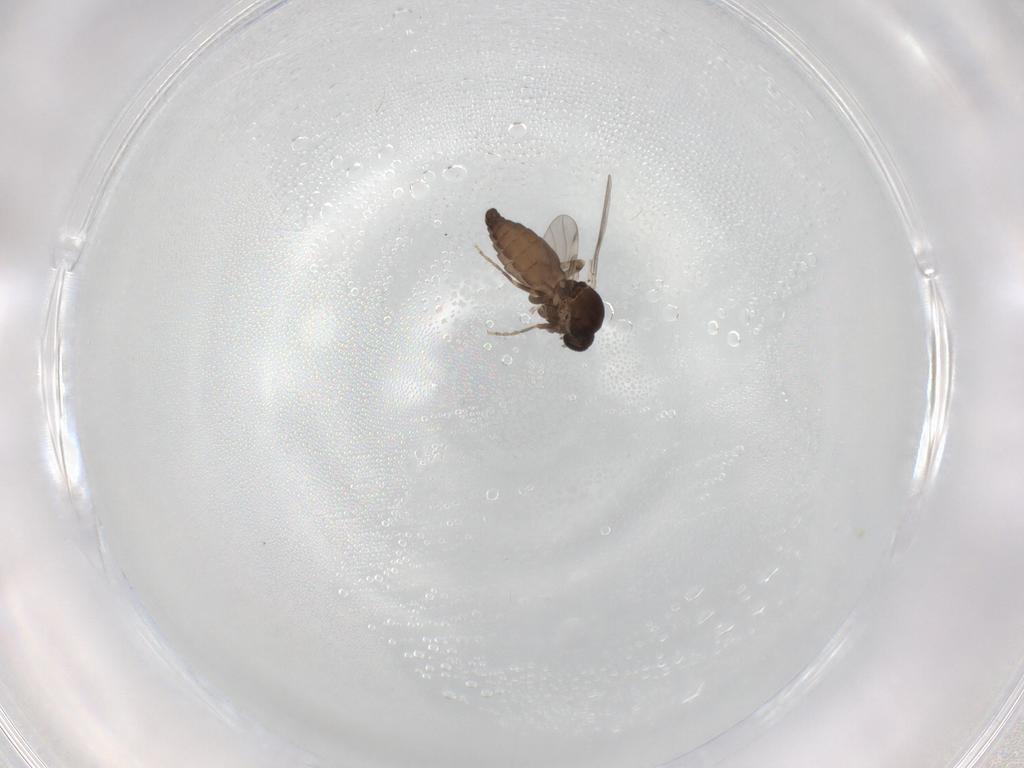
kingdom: Animalia
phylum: Arthropoda
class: Insecta
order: Diptera
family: Ceratopogonidae
